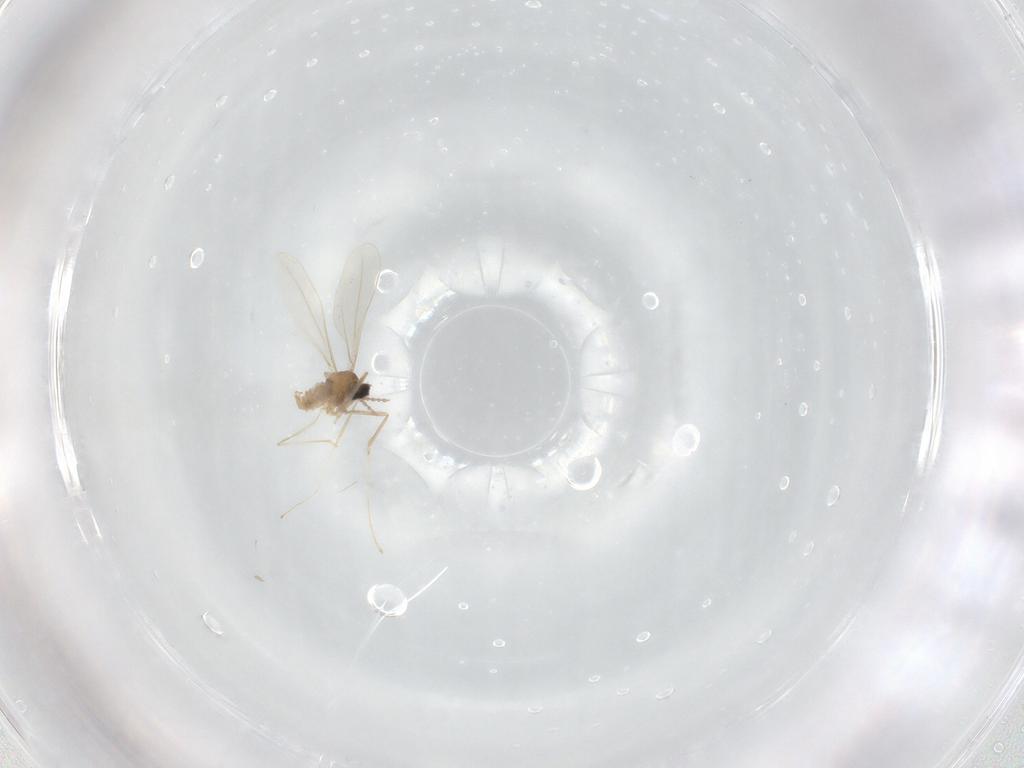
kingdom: Animalia
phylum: Arthropoda
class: Insecta
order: Diptera
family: Cecidomyiidae
